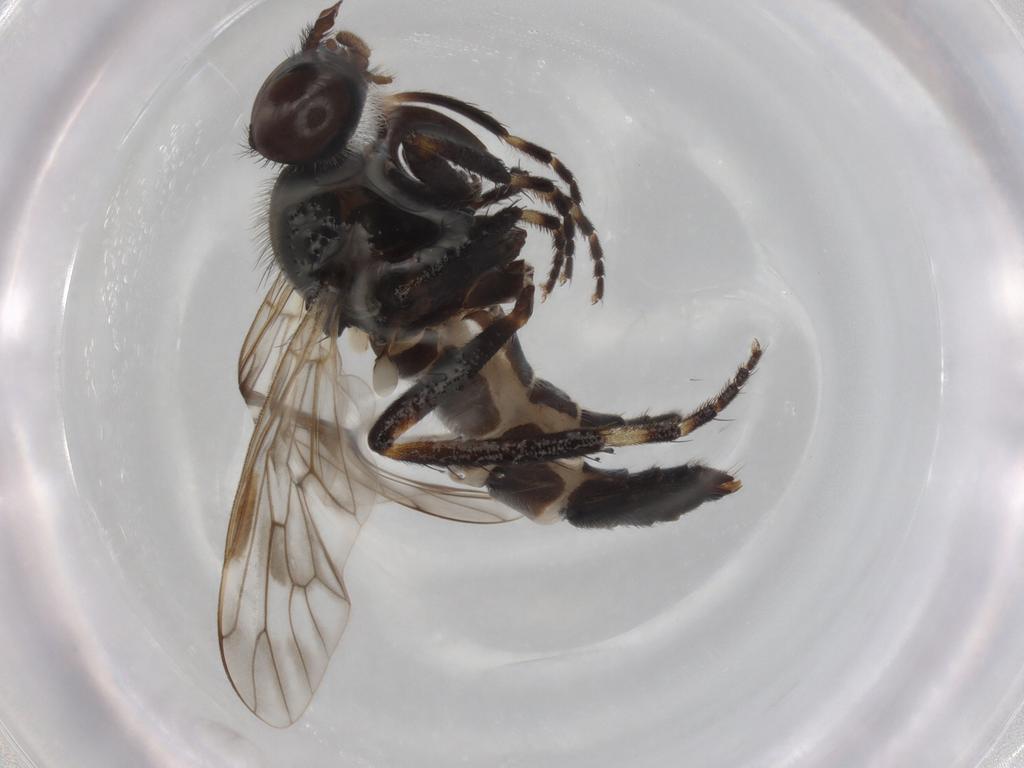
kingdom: Animalia
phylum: Arthropoda
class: Insecta
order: Diptera
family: Therevidae
